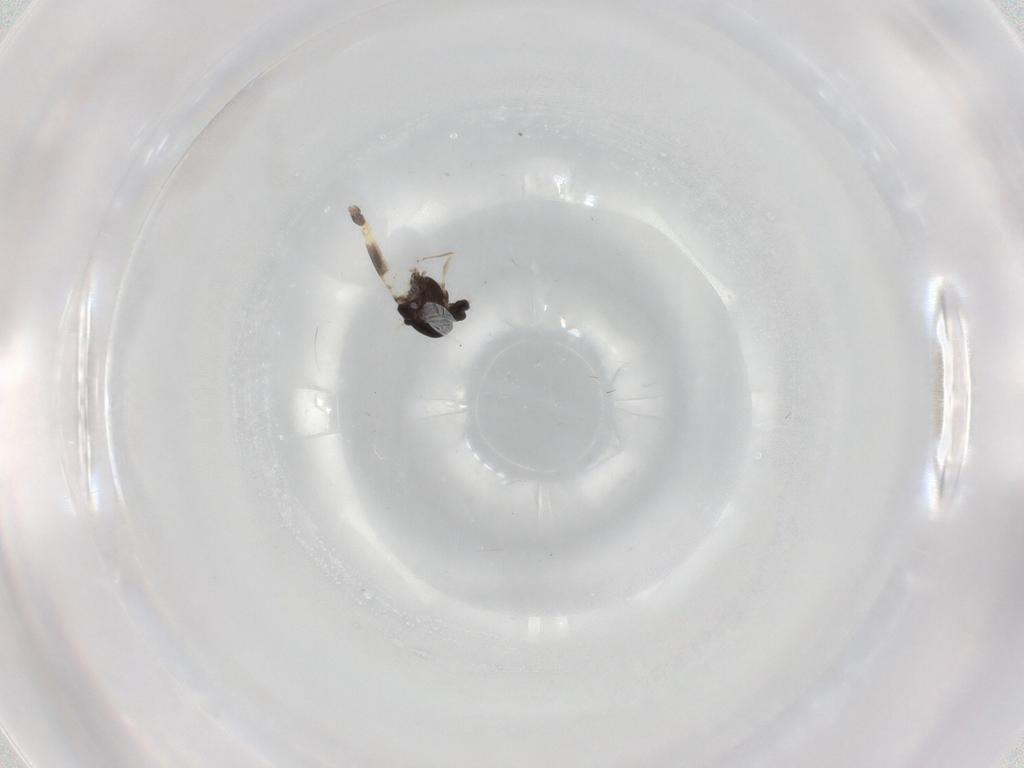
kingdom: Animalia
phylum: Arthropoda
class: Insecta
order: Diptera
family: Chironomidae
